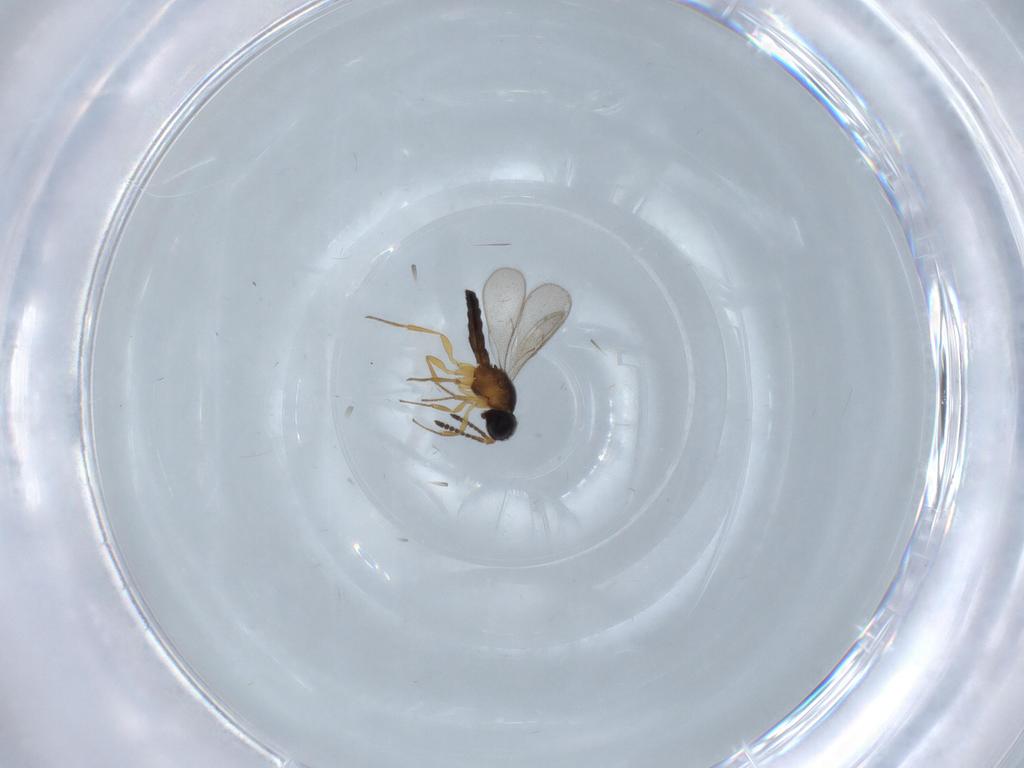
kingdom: Animalia
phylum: Arthropoda
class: Insecta
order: Hymenoptera
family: Scelionidae
